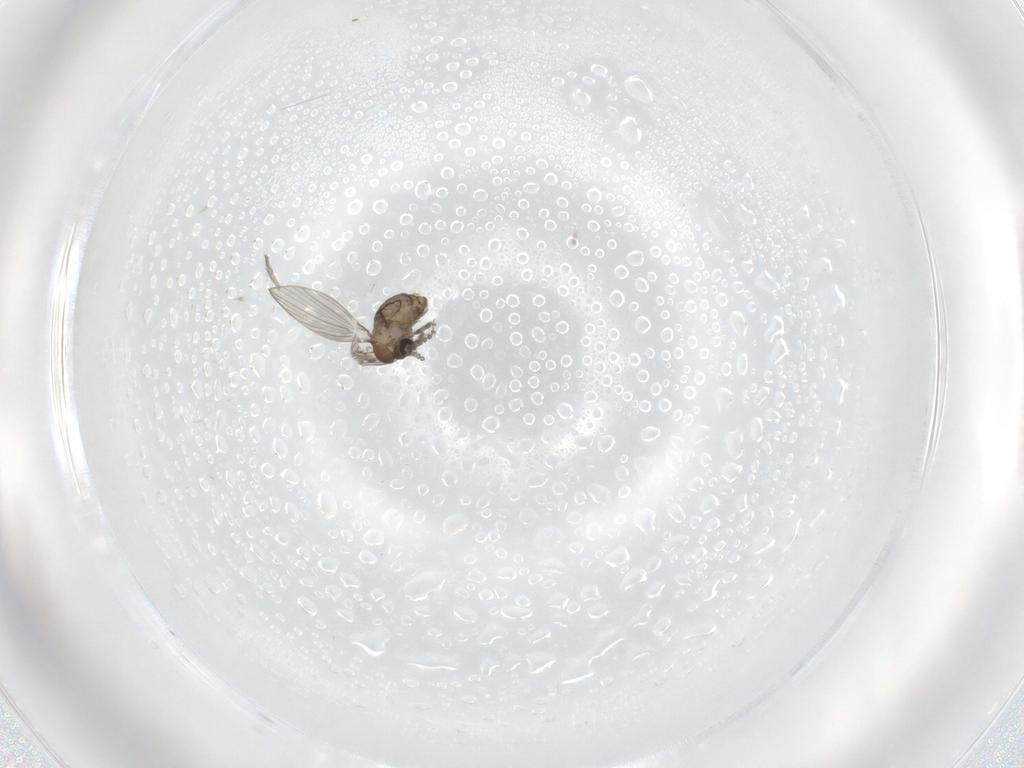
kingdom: Animalia
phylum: Arthropoda
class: Insecta
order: Diptera
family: Psychodidae
